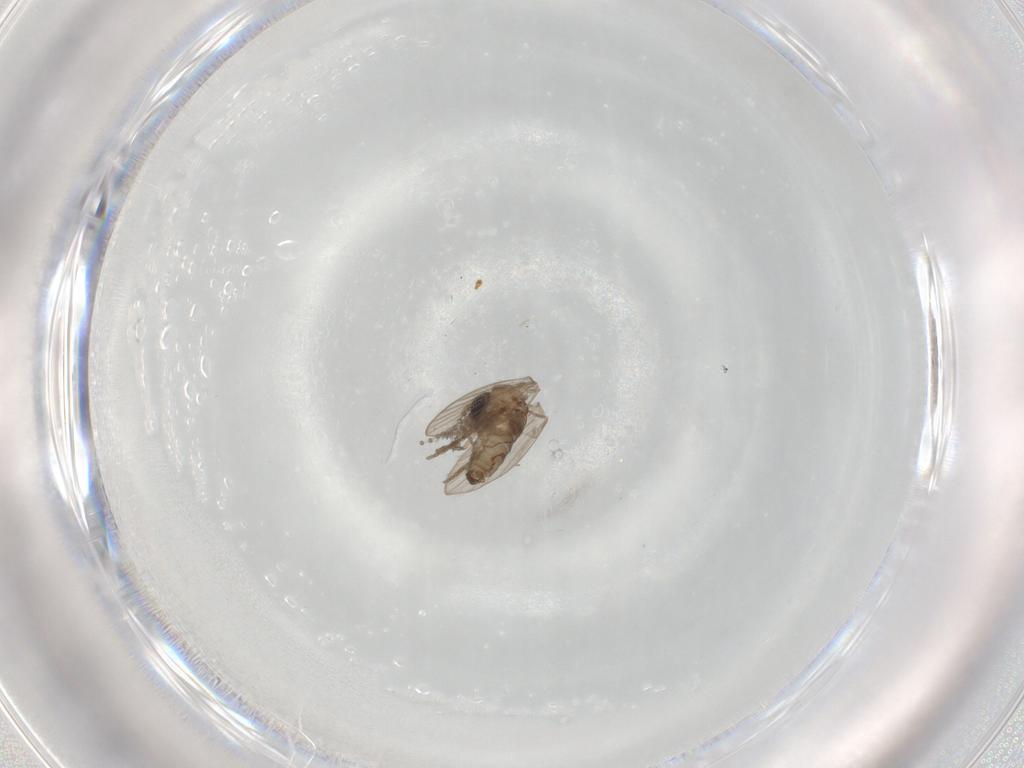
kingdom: Animalia
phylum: Arthropoda
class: Insecta
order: Diptera
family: Psychodidae
